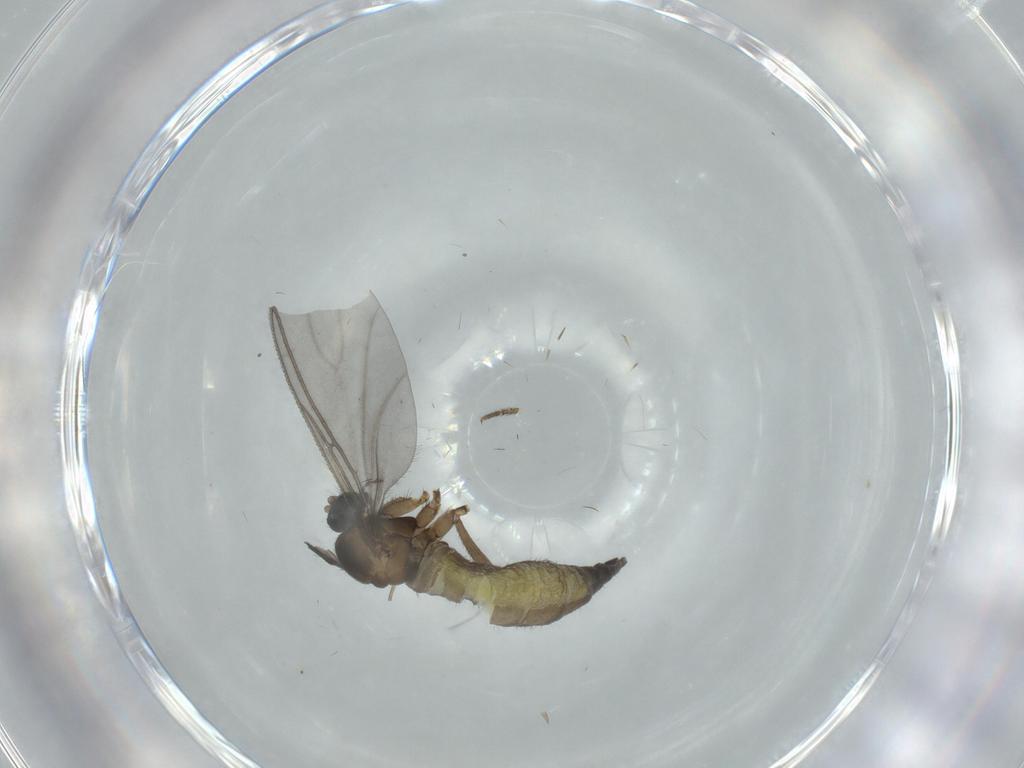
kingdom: Animalia
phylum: Arthropoda
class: Insecta
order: Diptera
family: Sciaridae
